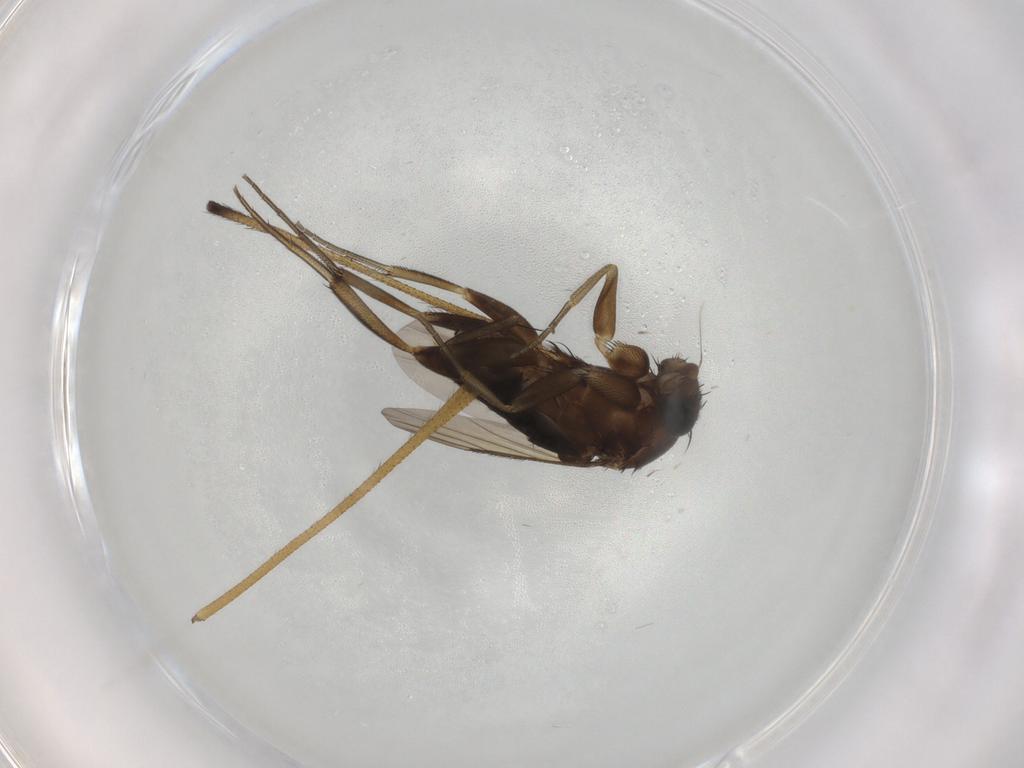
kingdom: Animalia
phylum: Arthropoda
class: Insecta
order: Diptera
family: Phoridae
